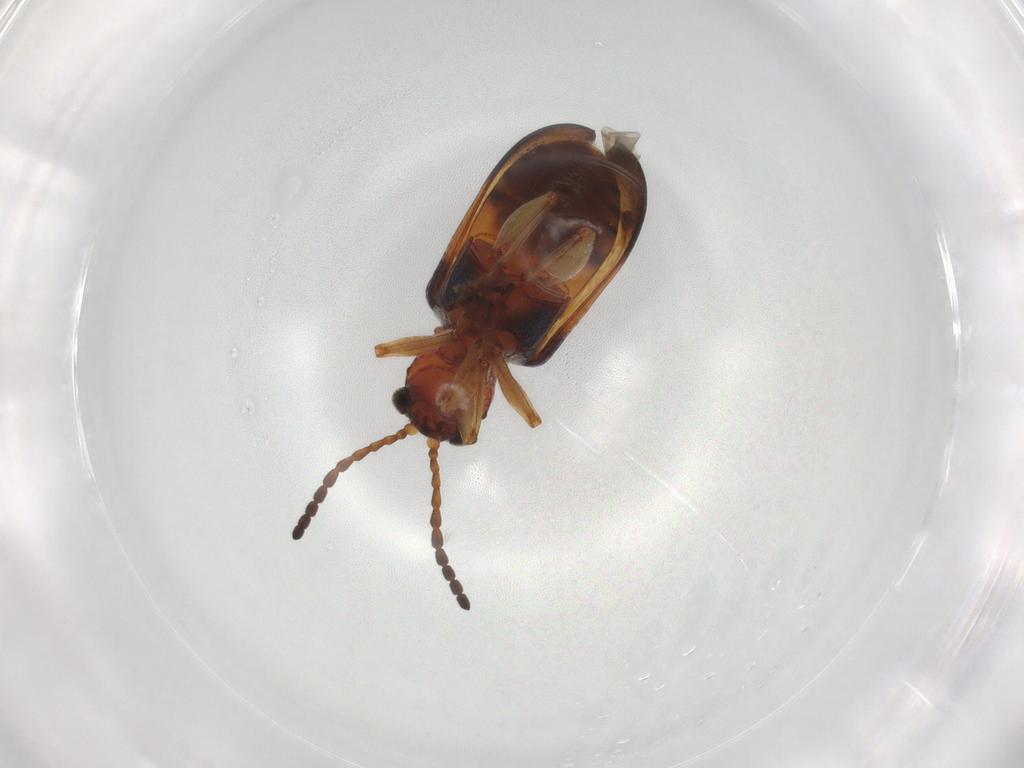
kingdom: Animalia
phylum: Arthropoda
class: Insecta
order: Coleoptera
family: Staphylinidae
